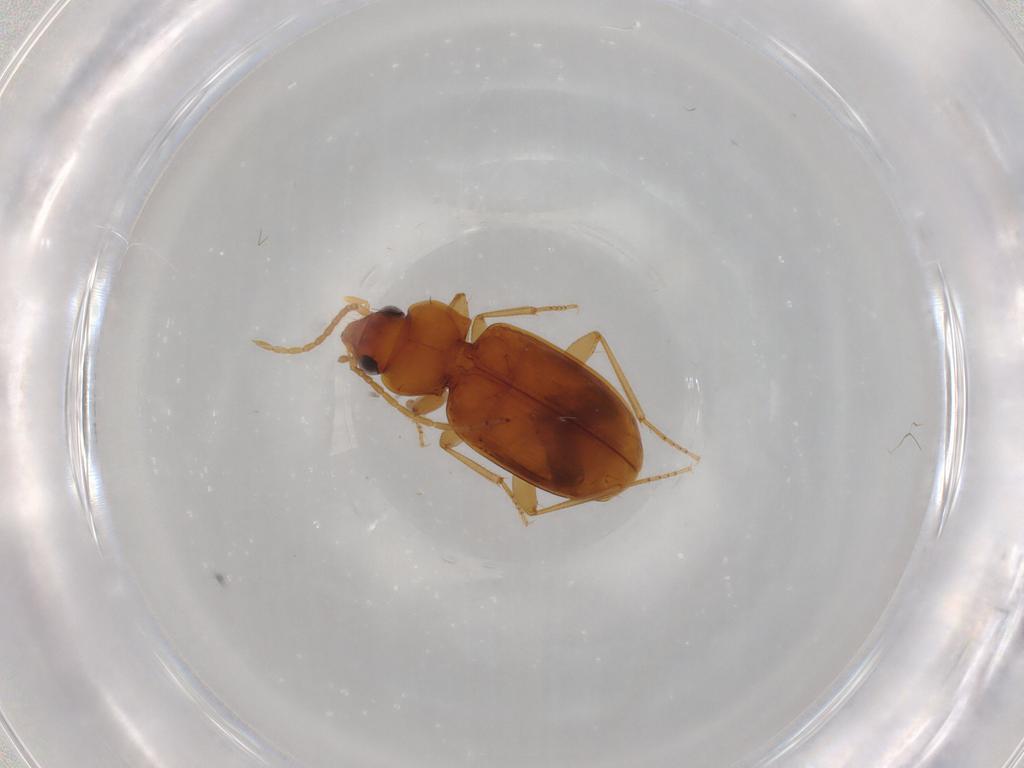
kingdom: Animalia
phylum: Arthropoda
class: Insecta
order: Coleoptera
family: Carabidae
